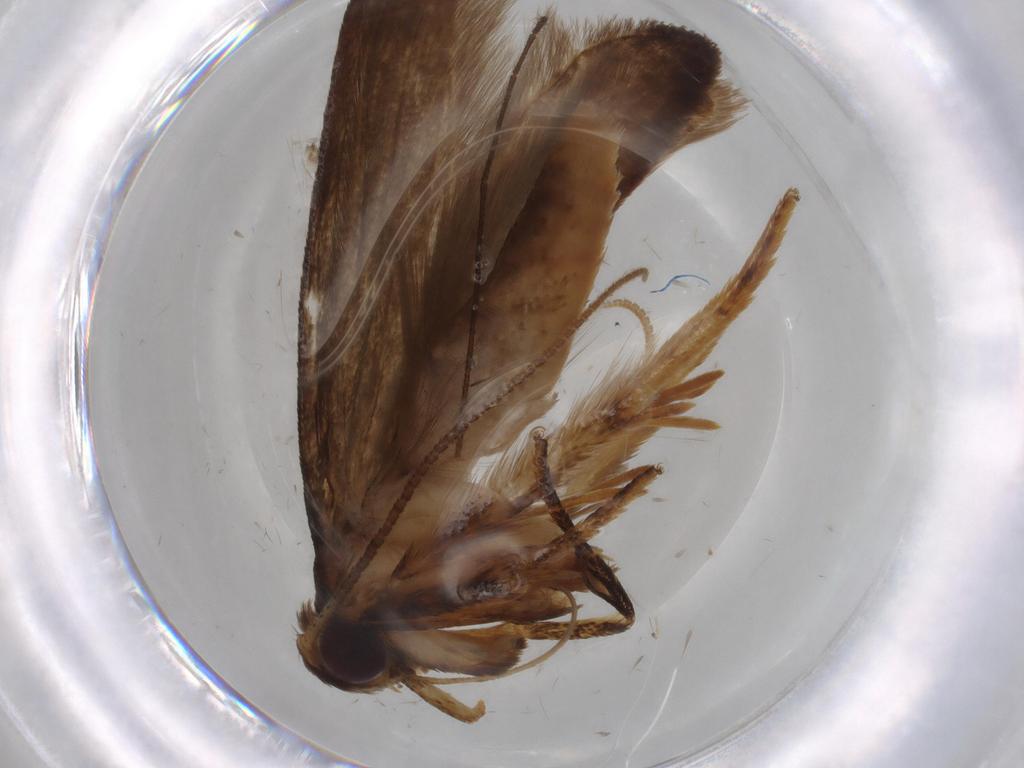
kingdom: Animalia
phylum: Arthropoda
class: Insecta
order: Lepidoptera
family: Blastobasidae
